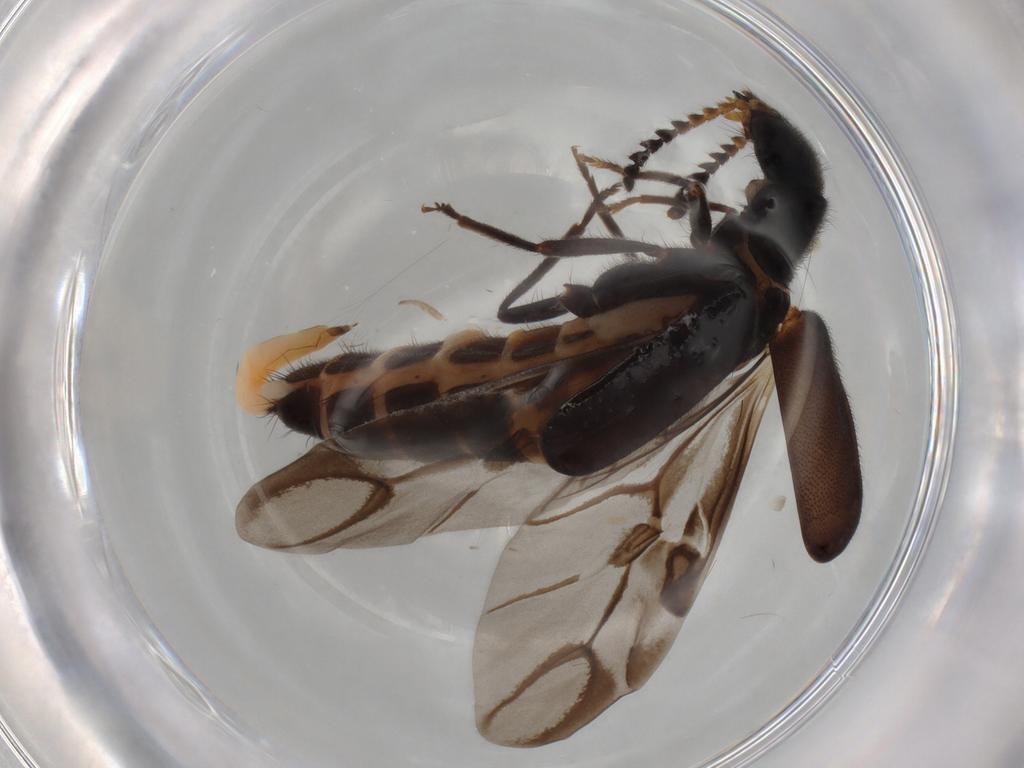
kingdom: Animalia
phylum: Arthropoda
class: Insecta
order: Coleoptera
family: Melyridae
